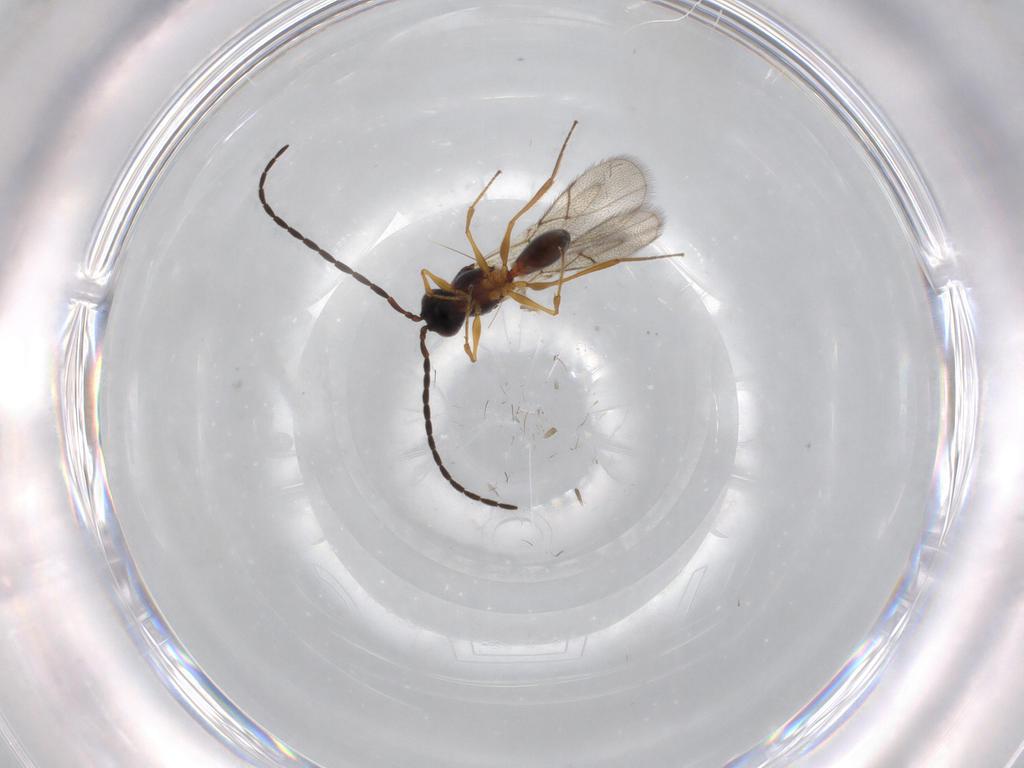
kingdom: Animalia
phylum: Arthropoda
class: Insecta
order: Hymenoptera
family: Figitidae
